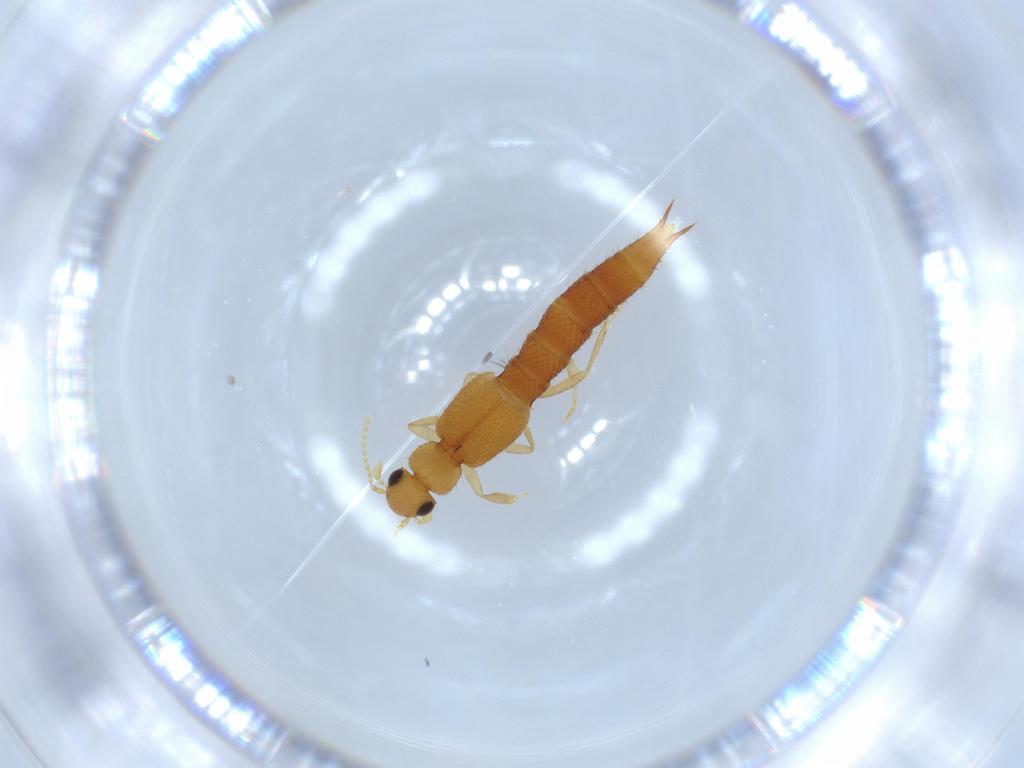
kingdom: Animalia
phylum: Arthropoda
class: Insecta
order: Coleoptera
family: Staphylinidae
